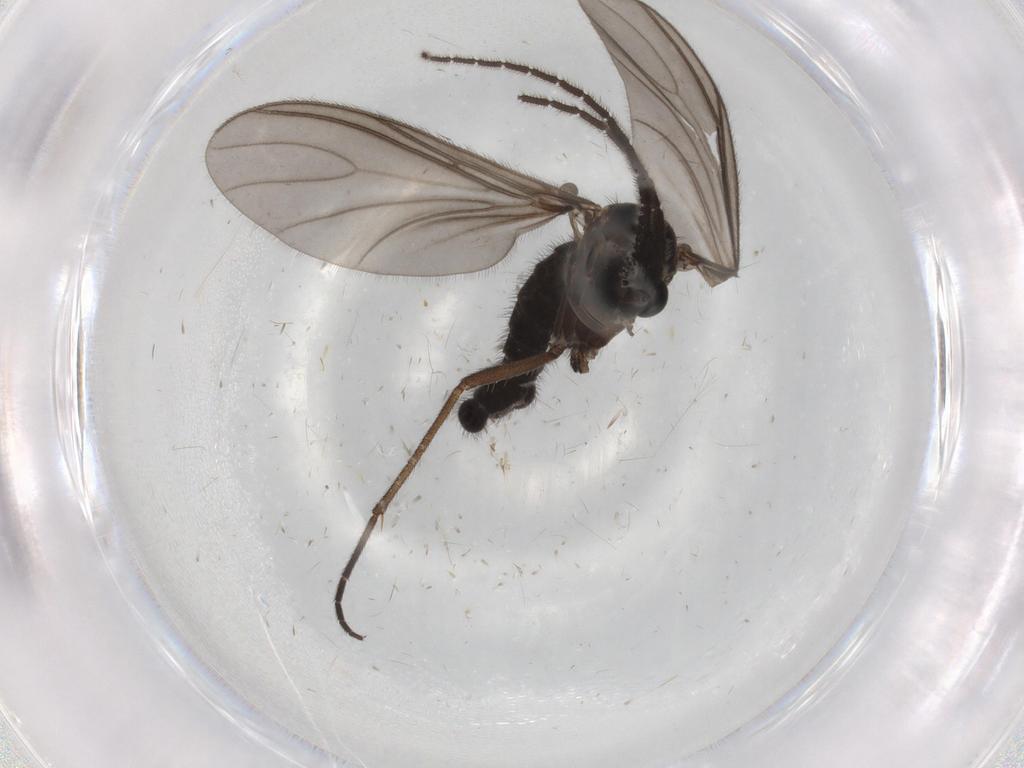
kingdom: Animalia
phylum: Arthropoda
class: Insecta
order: Diptera
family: Sciaridae
